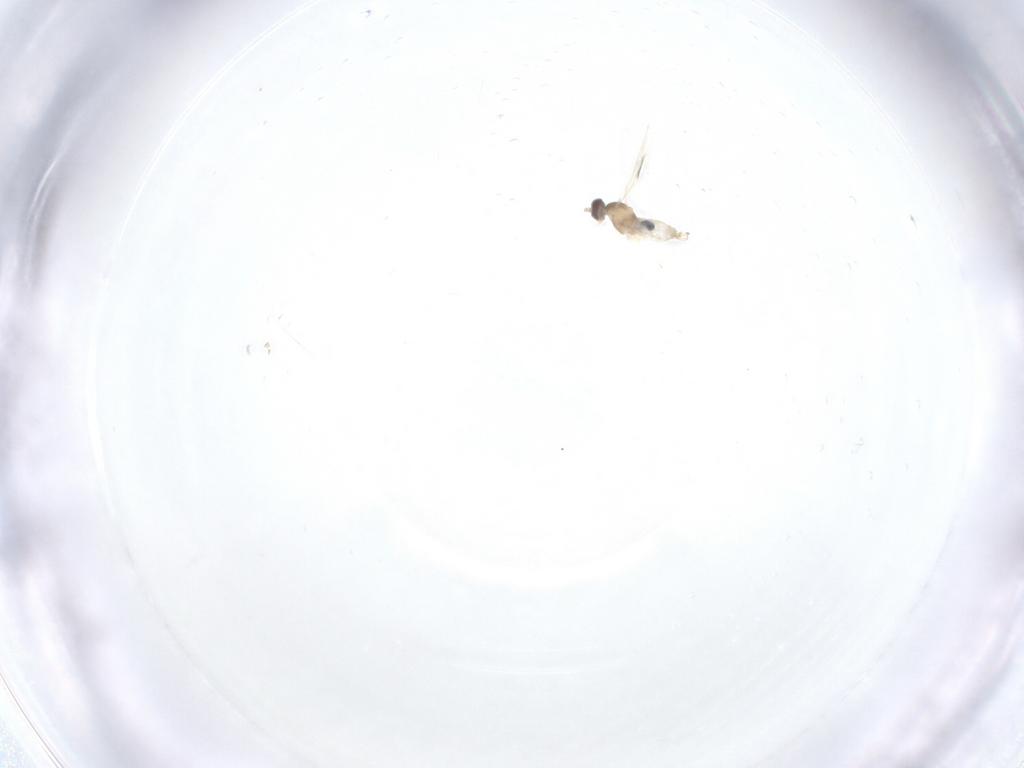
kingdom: Animalia
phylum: Arthropoda
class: Insecta
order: Diptera
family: Cecidomyiidae
